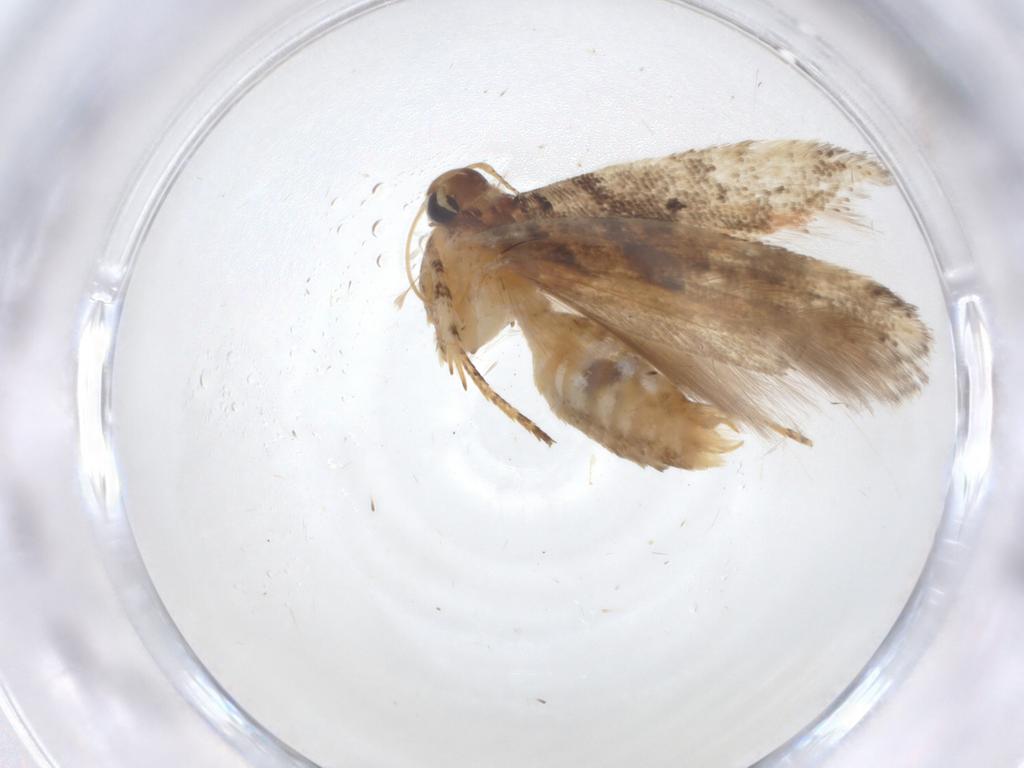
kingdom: Animalia
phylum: Arthropoda
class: Insecta
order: Lepidoptera
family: Gelechiidae
